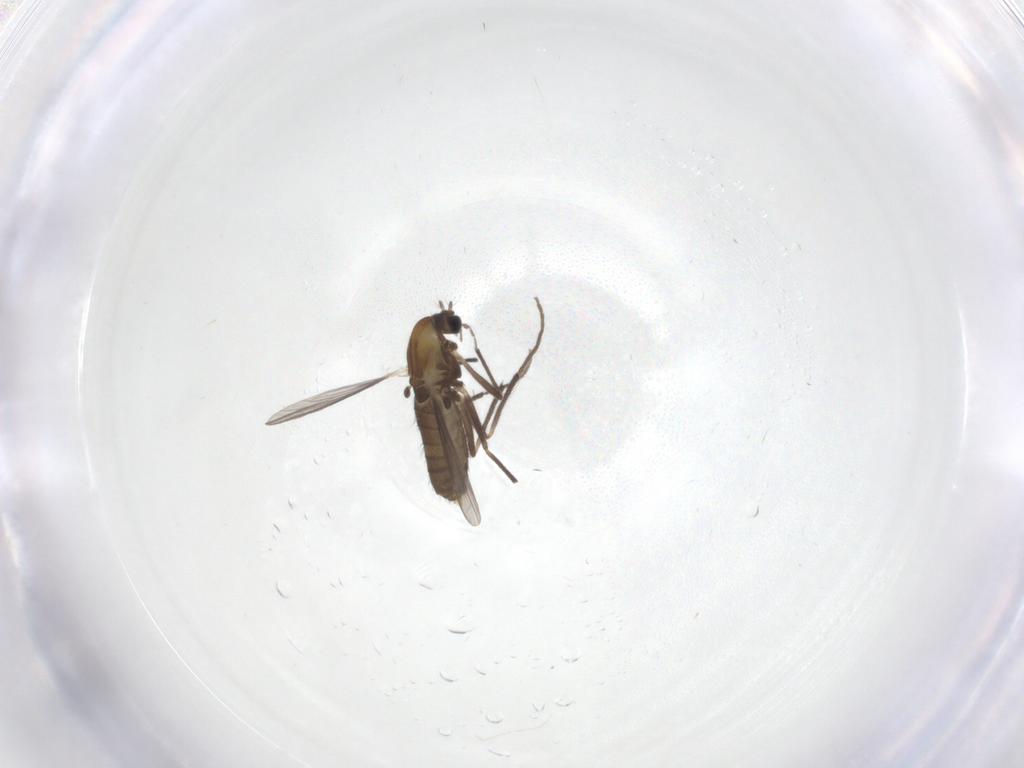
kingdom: Animalia
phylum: Arthropoda
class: Insecta
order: Diptera
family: Chironomidae
